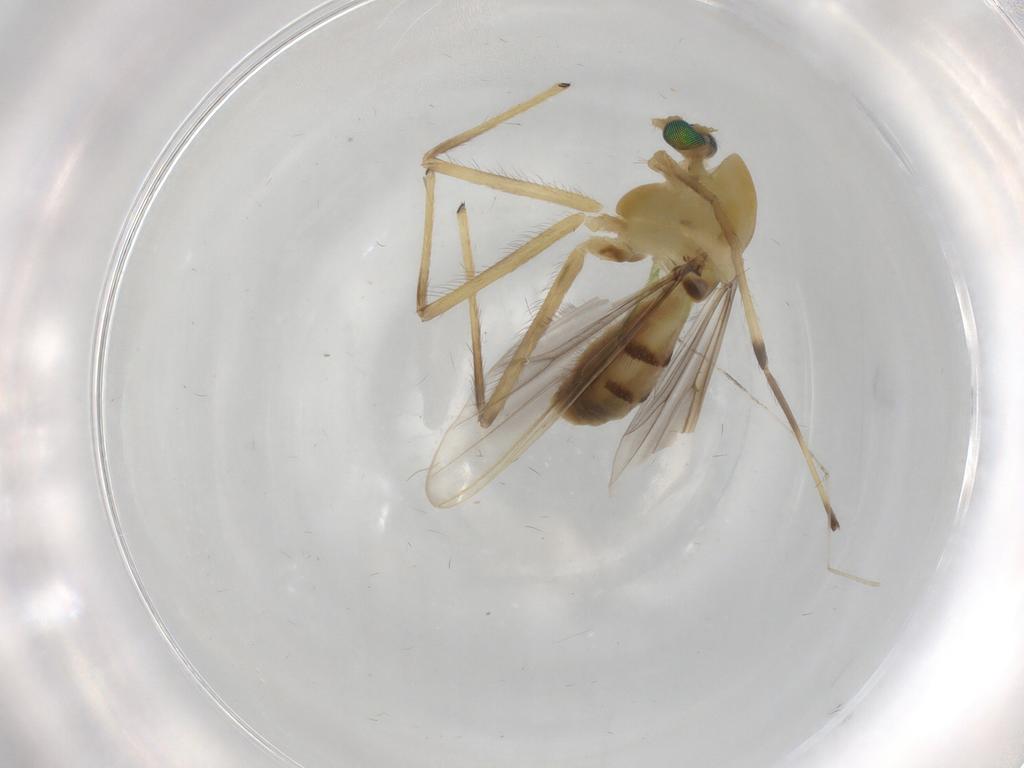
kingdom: Animalia
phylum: Arthropoda
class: Insecta
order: Diptera
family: Chironomidae
